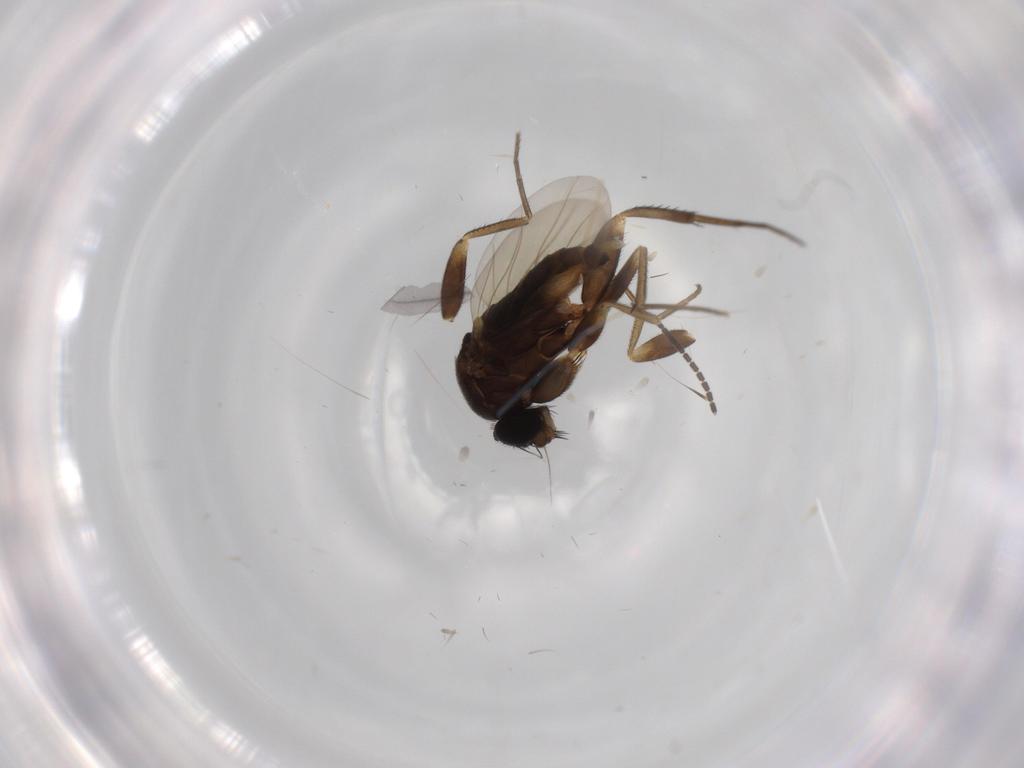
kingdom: Animalia
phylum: Arthropoda
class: Insecta
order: Diptera
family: Phoridae
